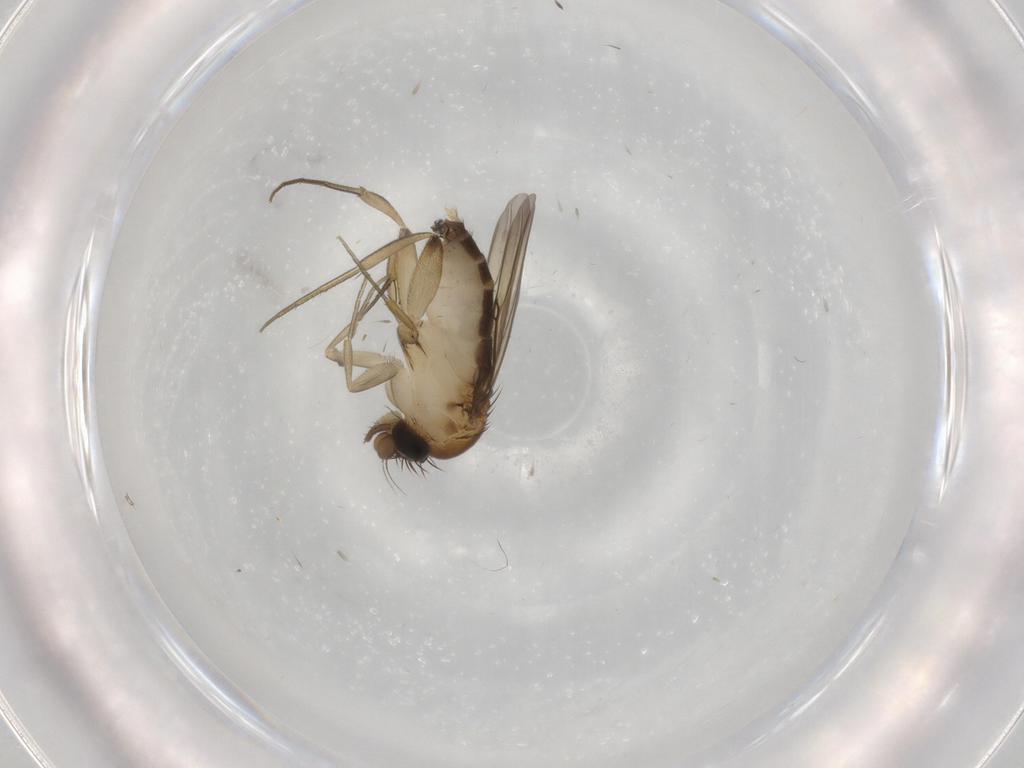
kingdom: Animalia
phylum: Arthropoda
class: Insecta
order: Diptera
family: Phoridae
